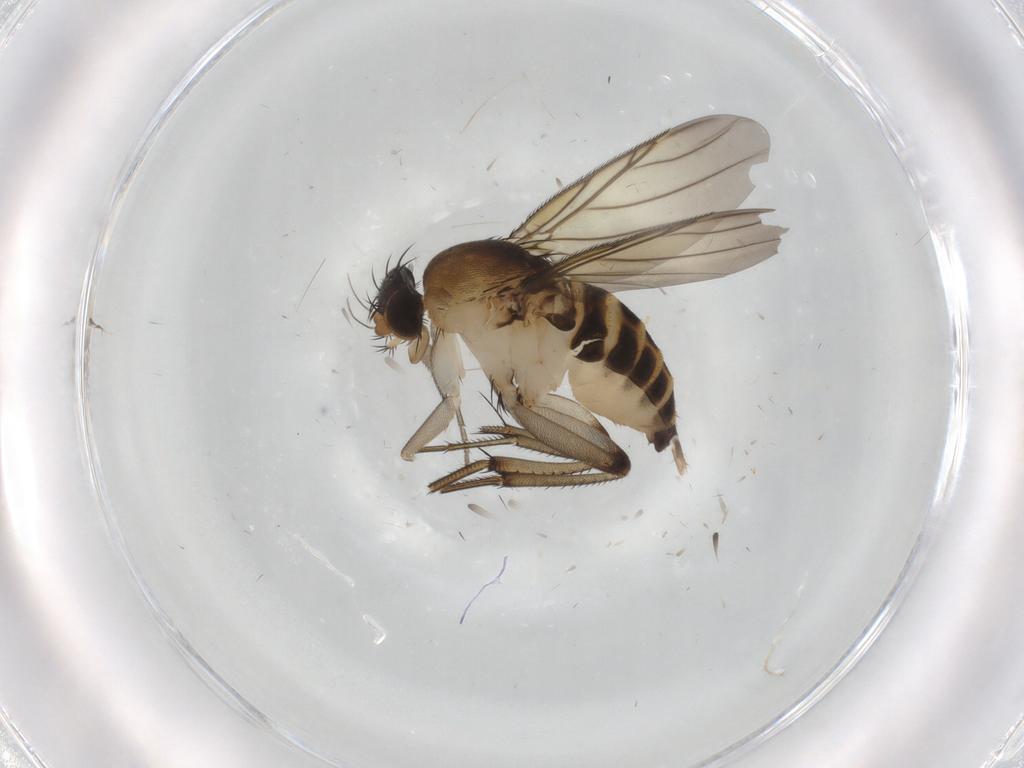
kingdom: Animalia
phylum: Arthropoda
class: Insecta
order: Diptera
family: Phoridae
